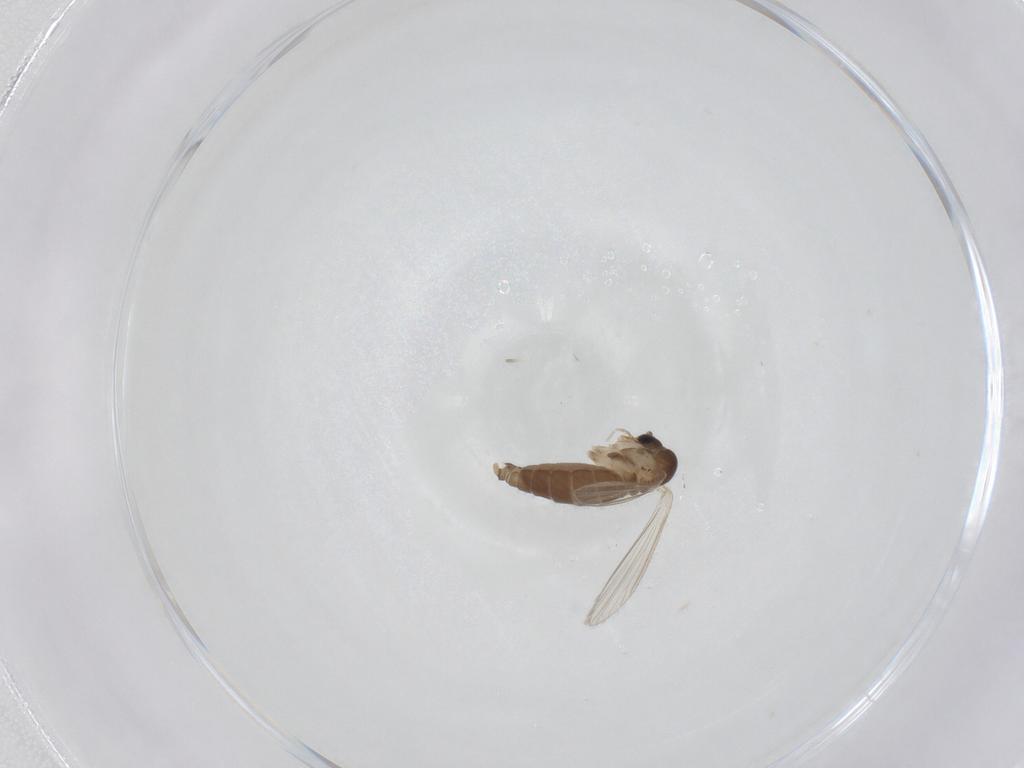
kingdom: Animalia
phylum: Arthropoda
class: Insecta
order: Diptera
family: Psychodidae
